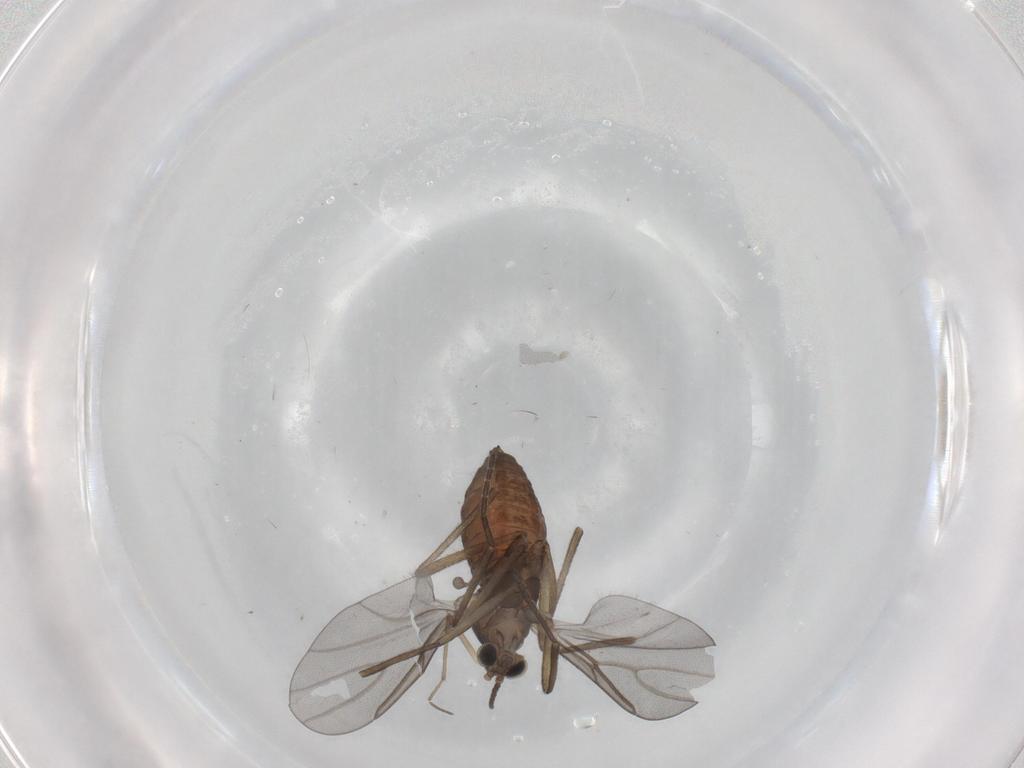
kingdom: Animalia
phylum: Arthropoda
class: Insecta
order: Diptera
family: Cecidomyiidae
